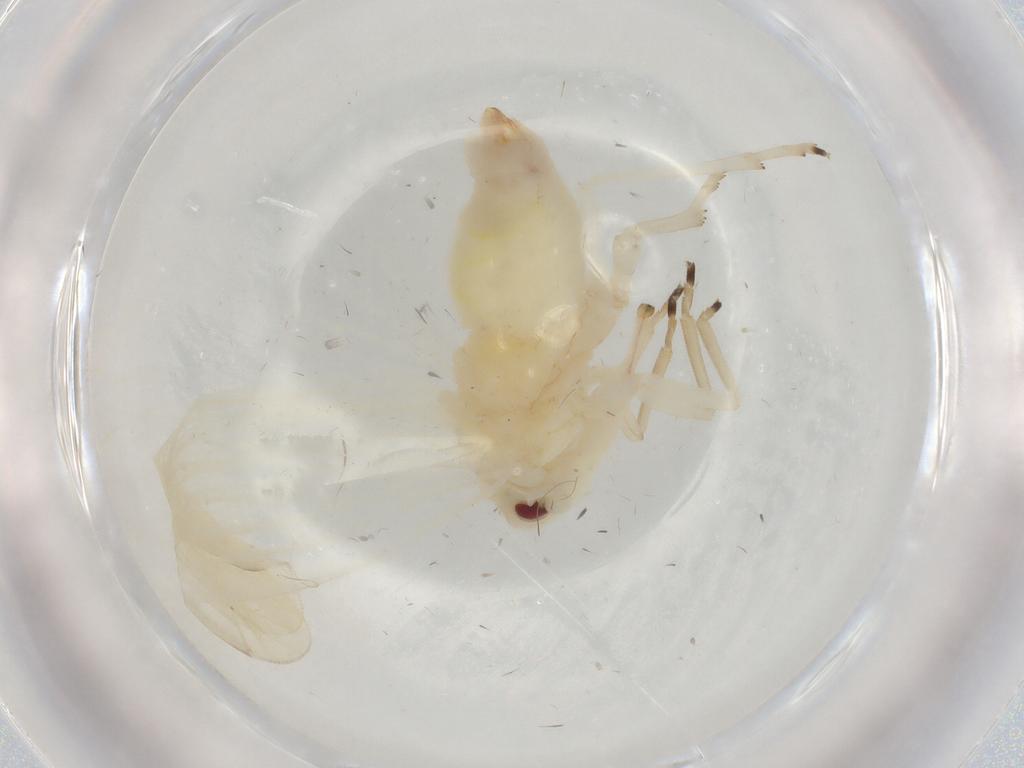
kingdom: Animalia
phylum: Arthropoda
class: Insecta
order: Hemiptera
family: Derbidae
